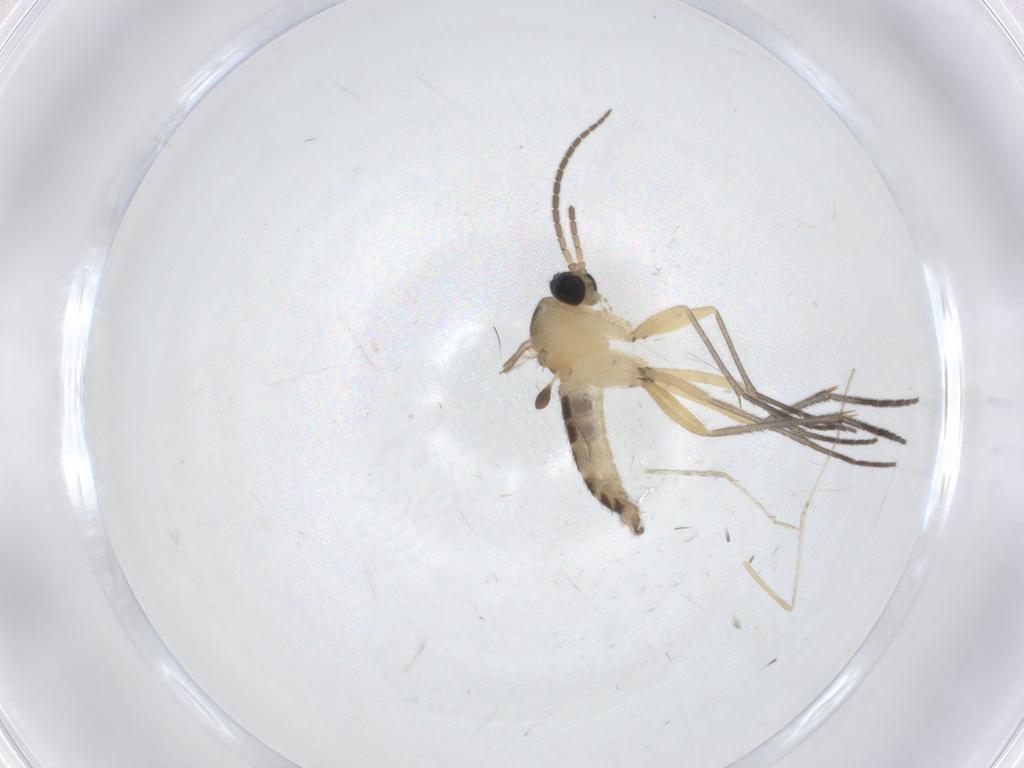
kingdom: Animalia
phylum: Arthropoda
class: Insecta
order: Diptera
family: Sciaridae
